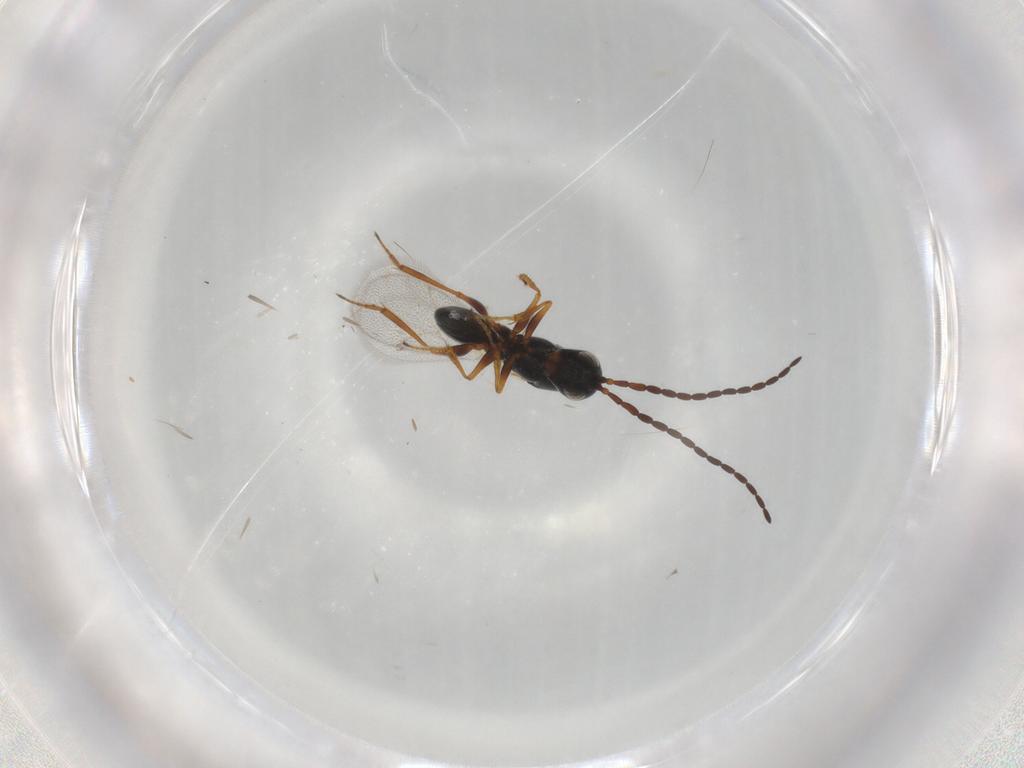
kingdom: Animalia
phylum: Arthropoda
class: Insecta
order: Hymenoptera
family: Figitidae
